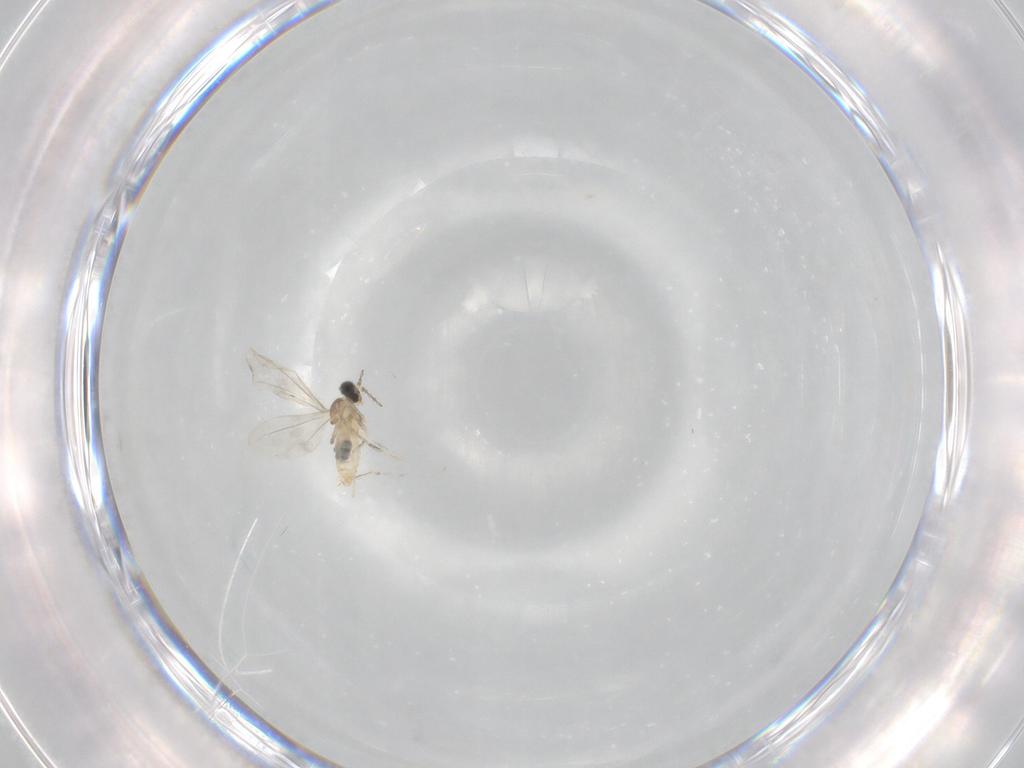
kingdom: Animalia
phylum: Arthropoda
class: Insecta
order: Diptera
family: Cecidomyiidae
